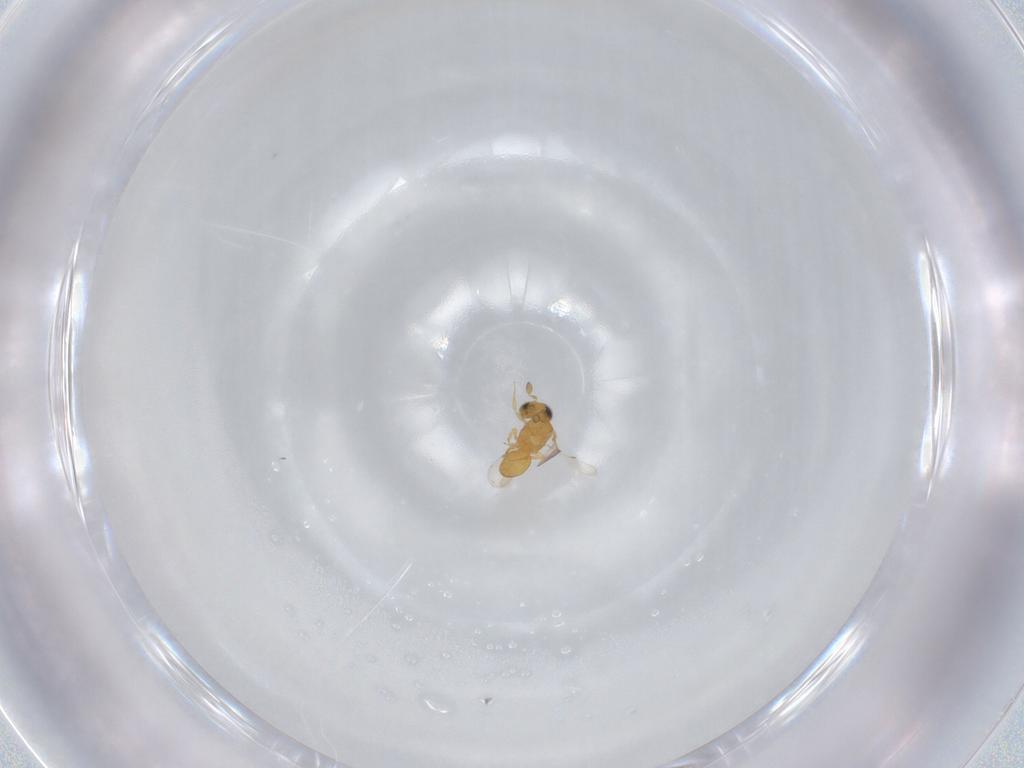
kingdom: Animalia
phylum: Arthropoda
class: Insecta
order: Hymenoptera
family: Scelionidae
